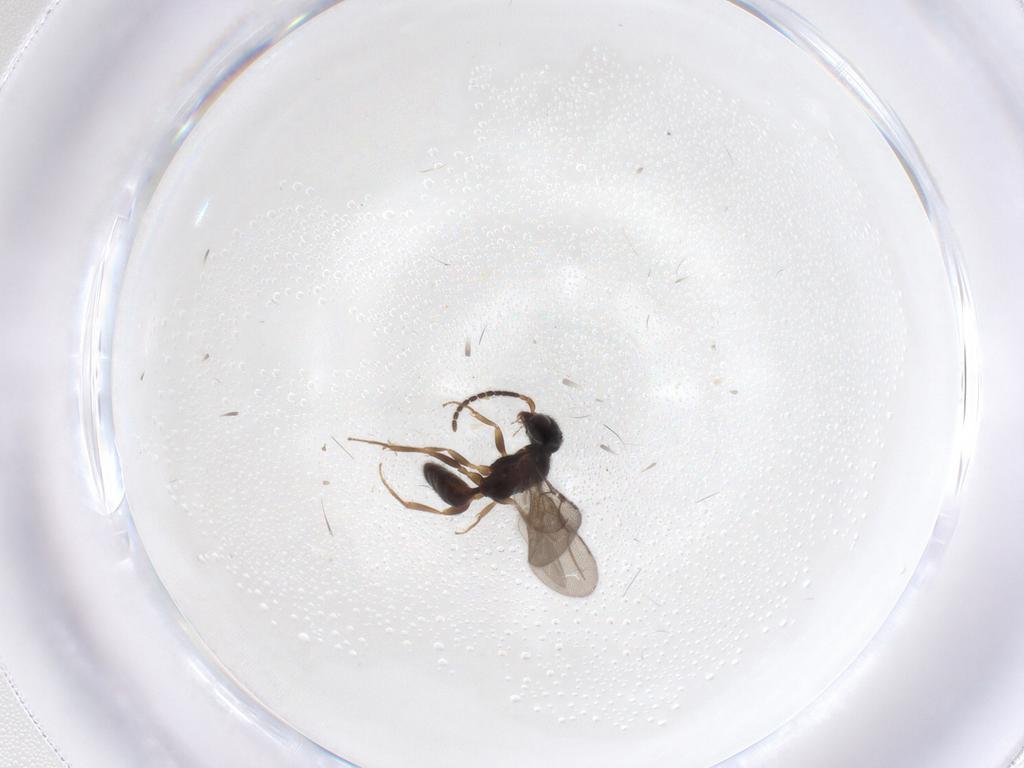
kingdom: Animalia
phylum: Arthropoda
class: Insecta
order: Hymenoptera
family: Bethylidae
